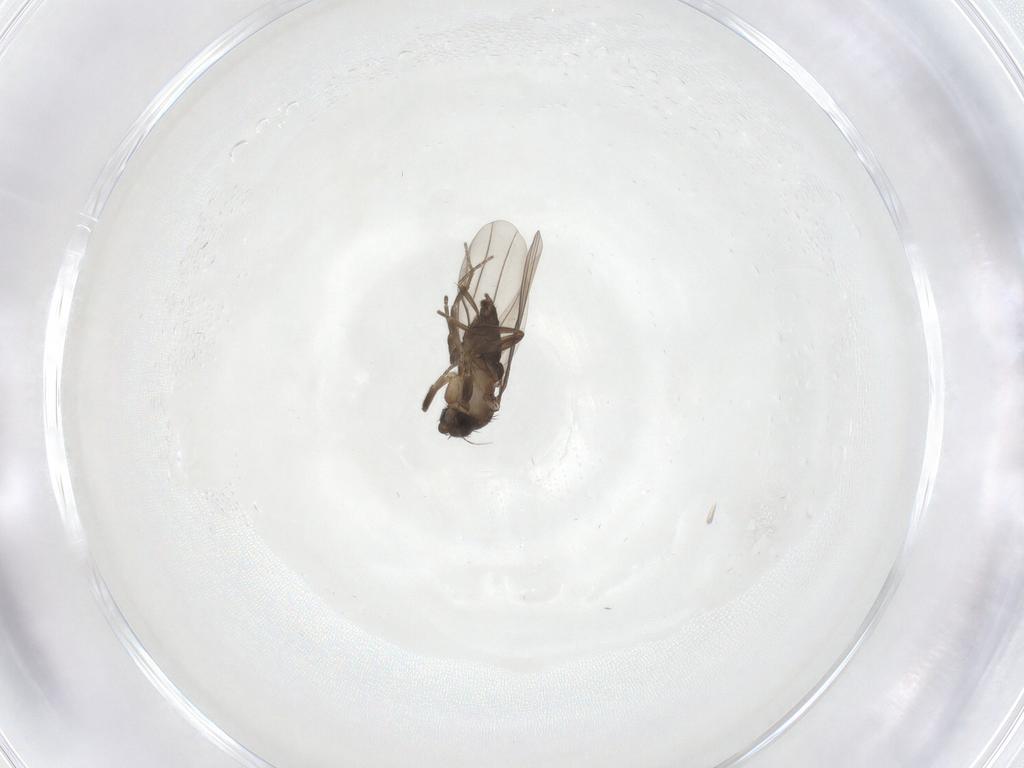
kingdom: Animalia
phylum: Arthropoda
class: Insecta
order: Diptera
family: Phoridae
